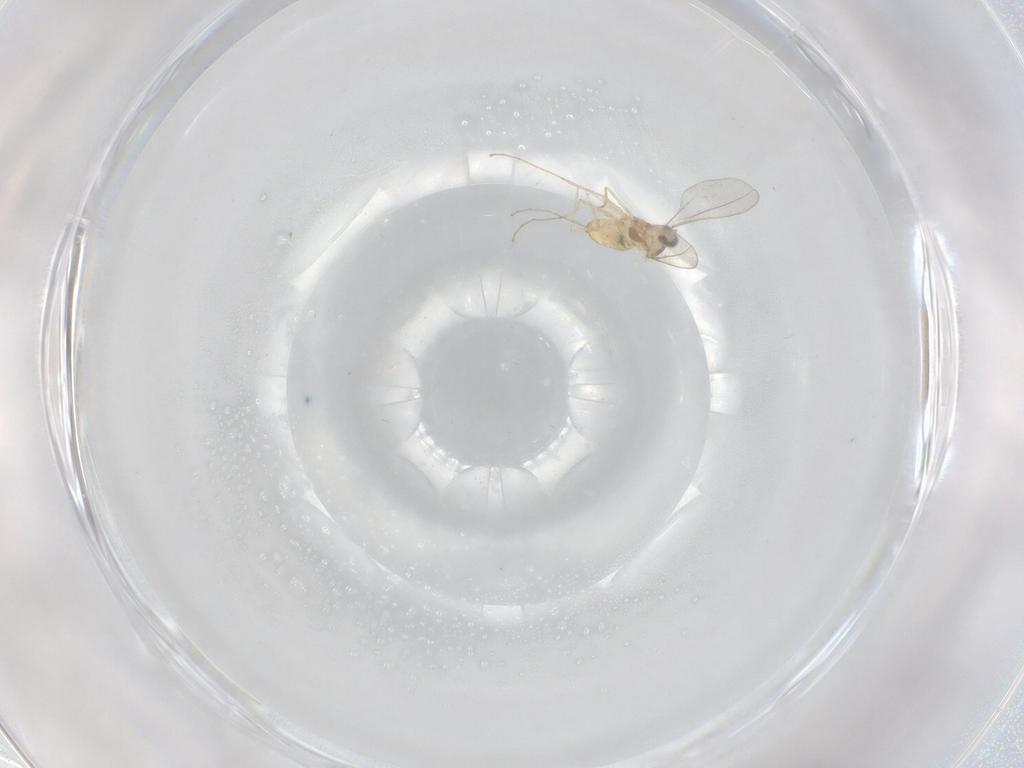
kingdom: Animalia
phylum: Arthropoda
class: Insecta
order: Diptera
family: Cecidomyiidae
